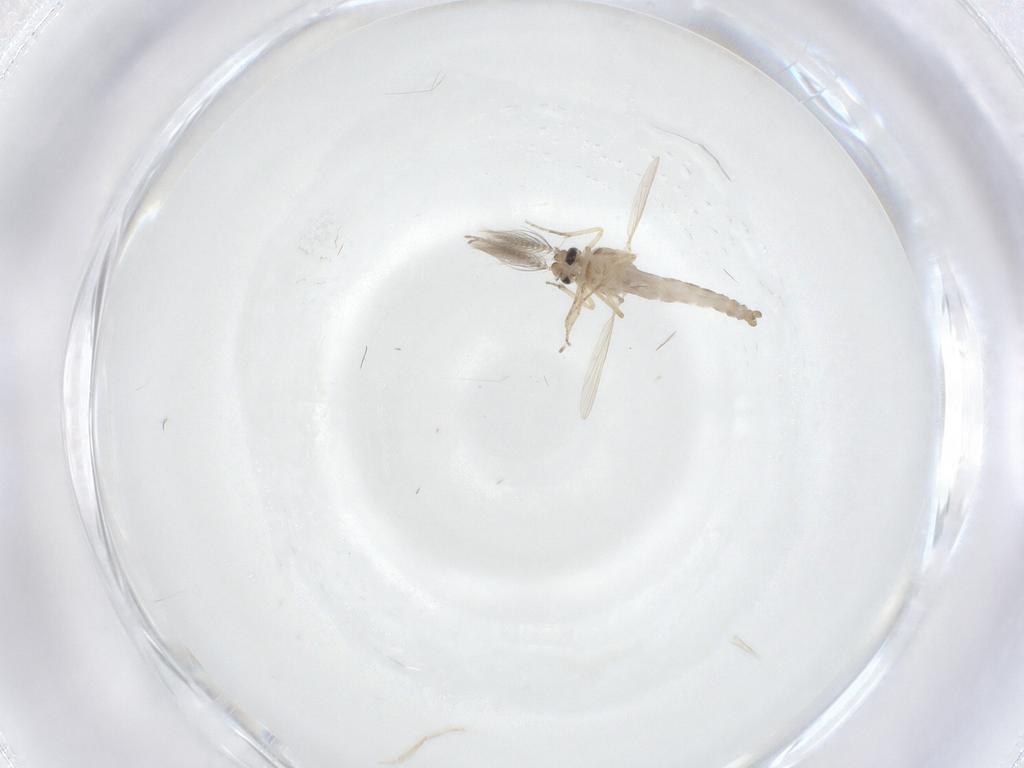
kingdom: Animalia
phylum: Arthropoda
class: Insecta
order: Diptera
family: Ceratopogonidae
